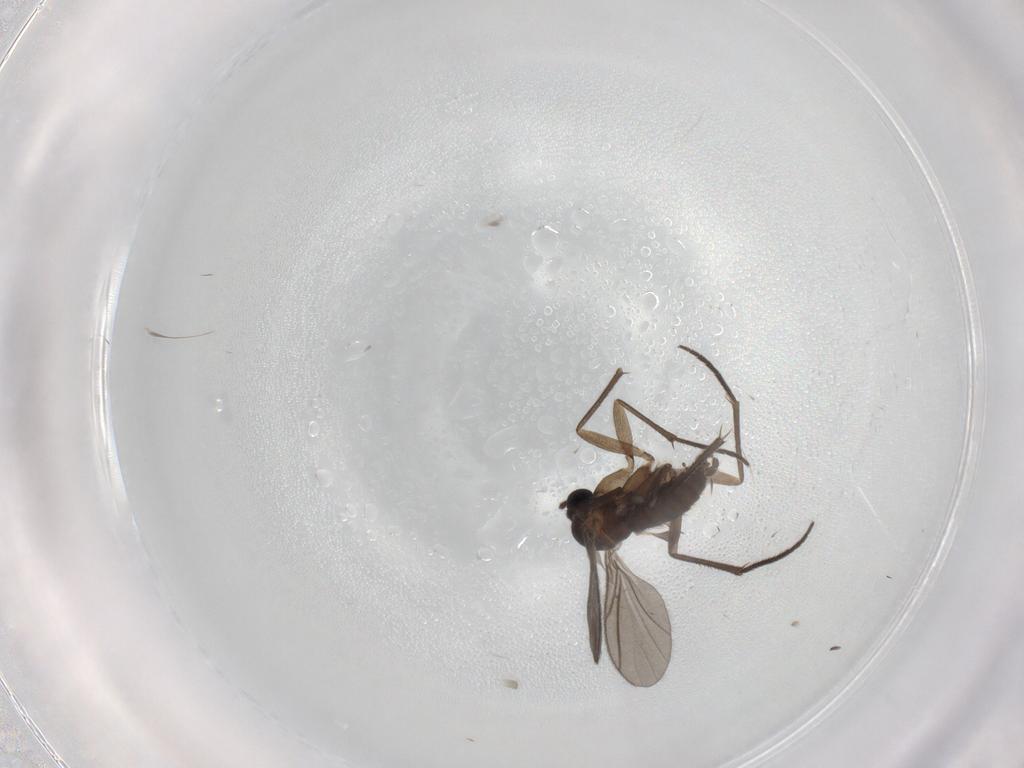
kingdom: Animalia
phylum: Arthropoda
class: Insecta
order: Diptera
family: Sciaridae
